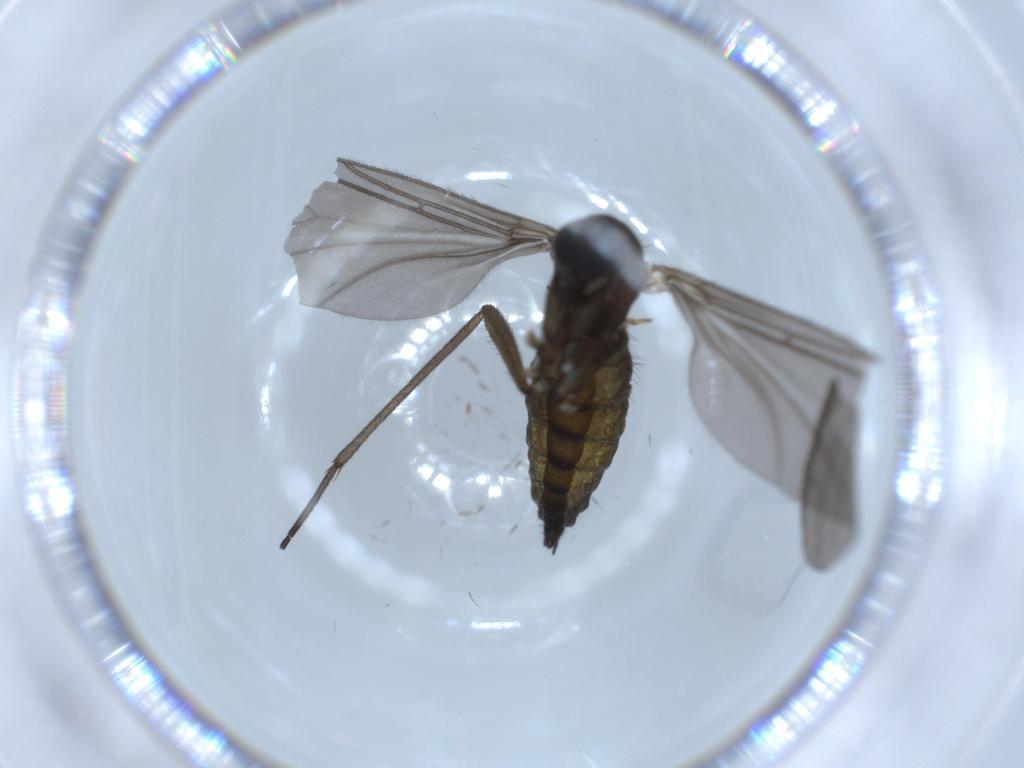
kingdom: Animalia
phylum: Arthropoda
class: Insecta
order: Diptera
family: Sciaridae
